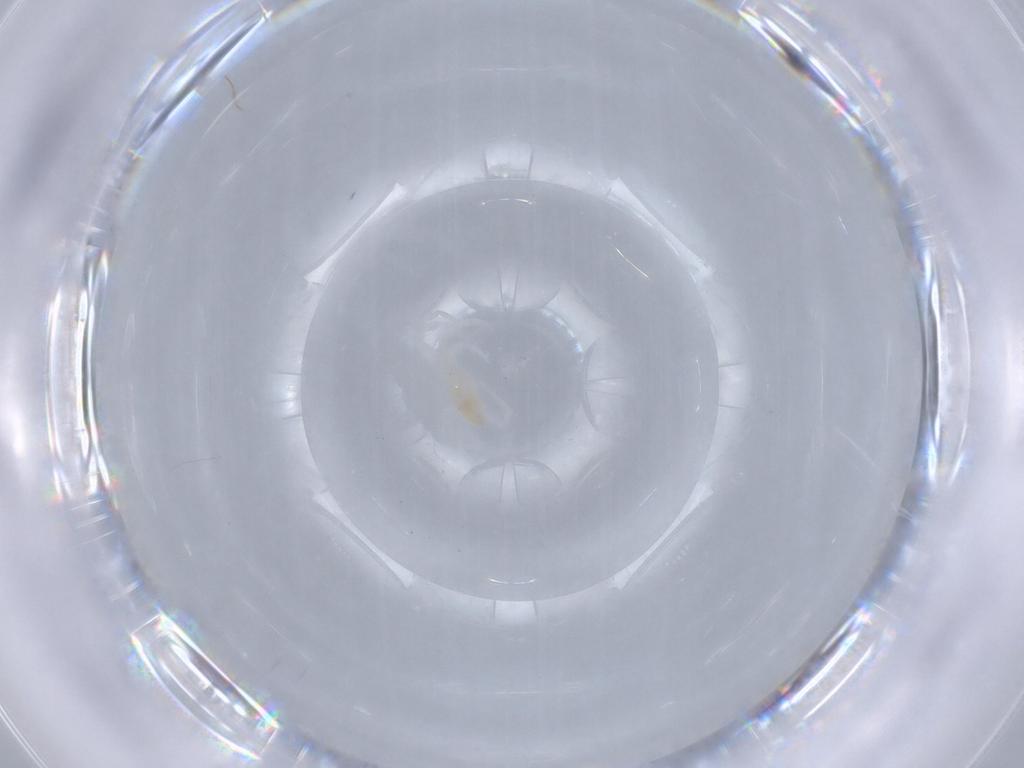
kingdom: Animalia
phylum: Arthropoda
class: Arachnida
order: Trombidiformes
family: Rhagidiidae
